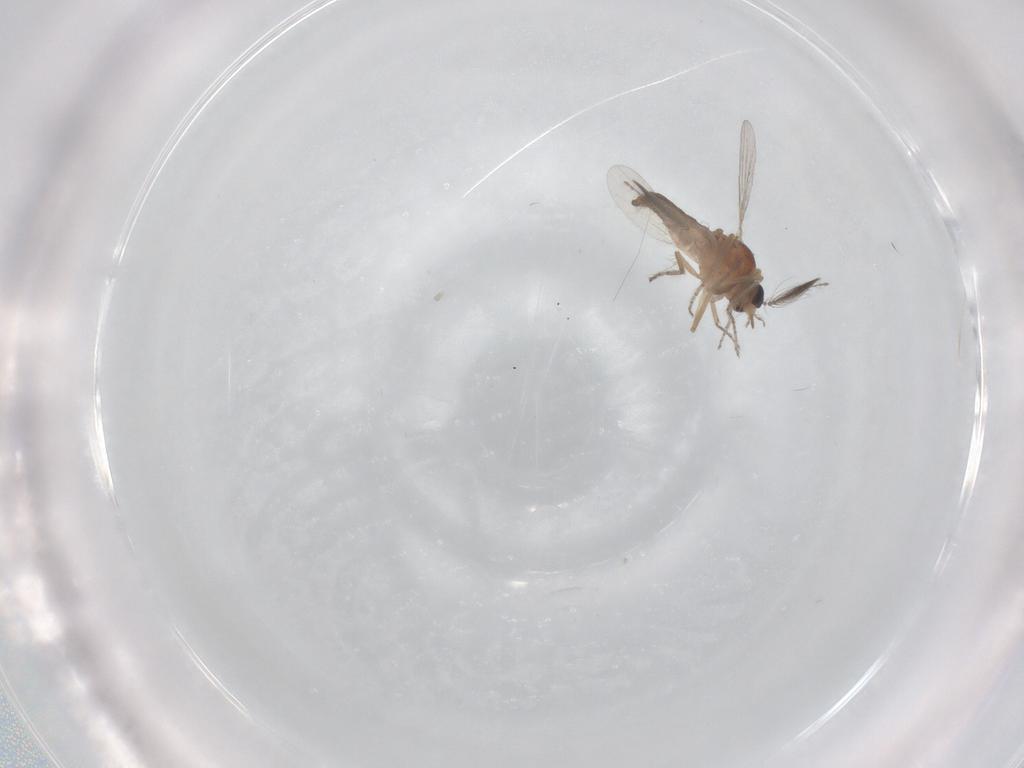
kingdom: Animalia
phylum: Arthropoda
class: Insecta
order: Diptera
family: Ceratopogonidae
